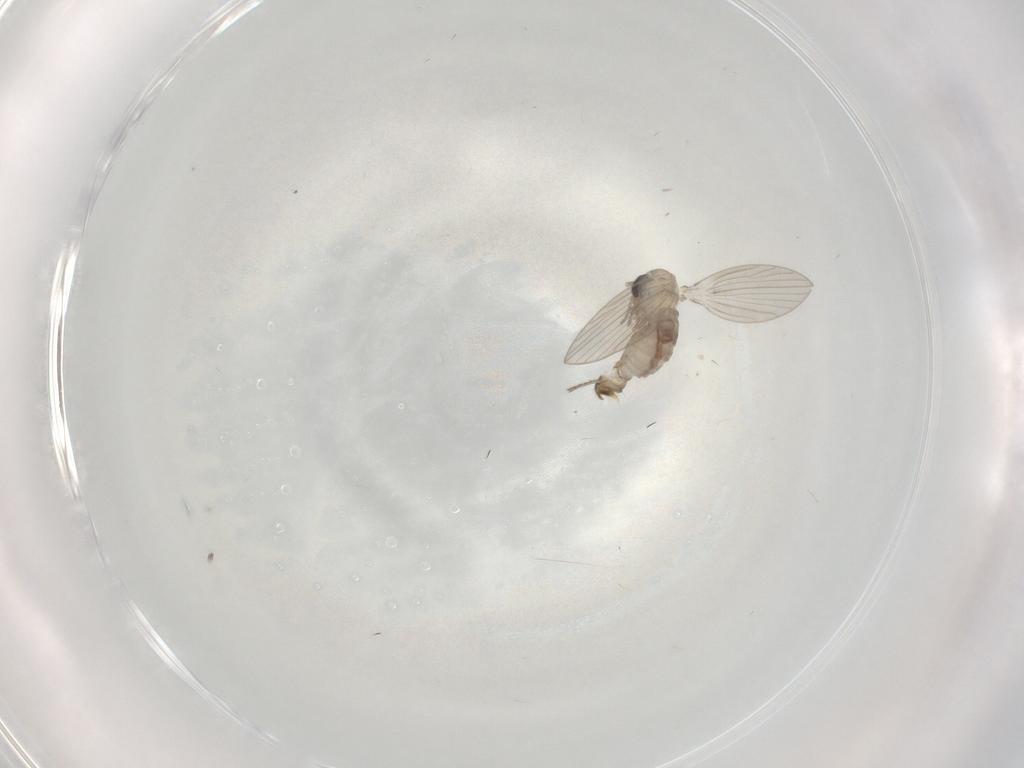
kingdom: Animalia
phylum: Arthropoda
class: Insecta
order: Diptera
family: Psychodidae
